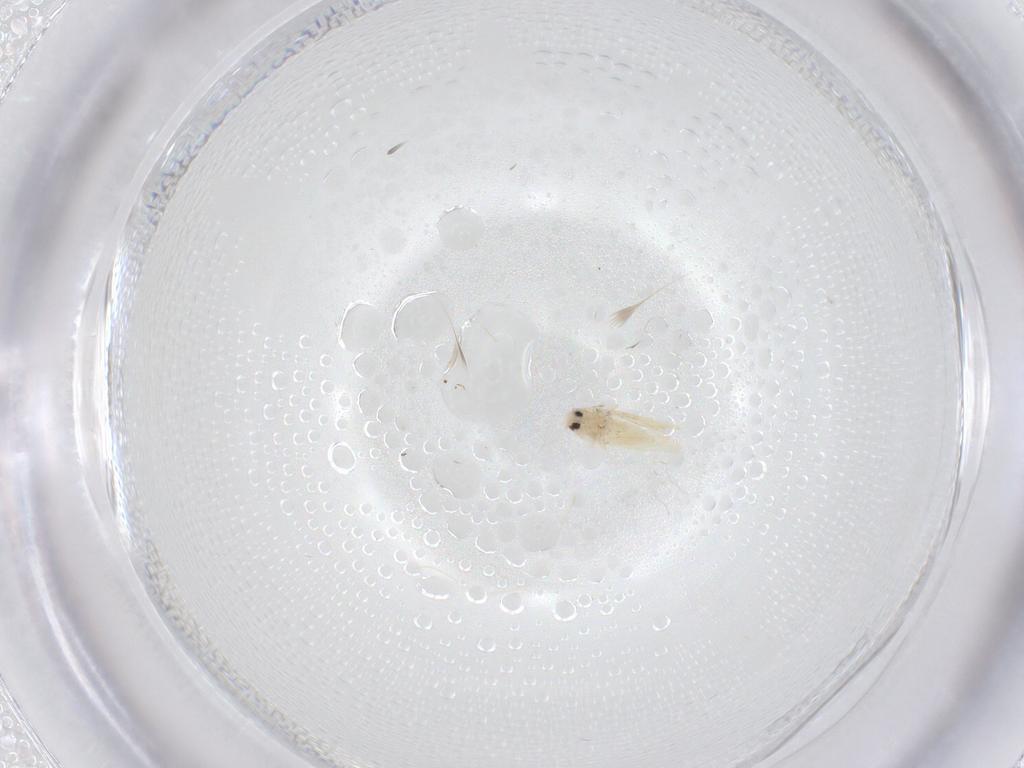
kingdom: Animalia
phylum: Arthropoda
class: Insecta
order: Hemiptera
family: Aleyrodidae
